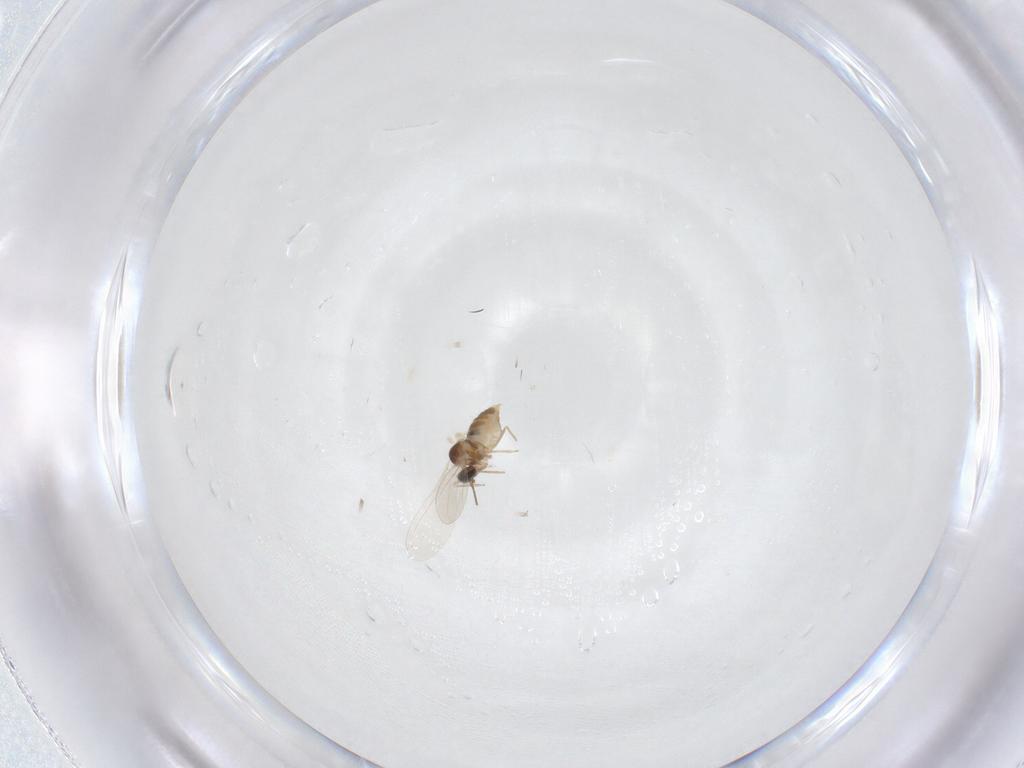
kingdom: Animalia
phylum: Arthropoda
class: Insecta
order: Diptera
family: Cecidomyiidae
